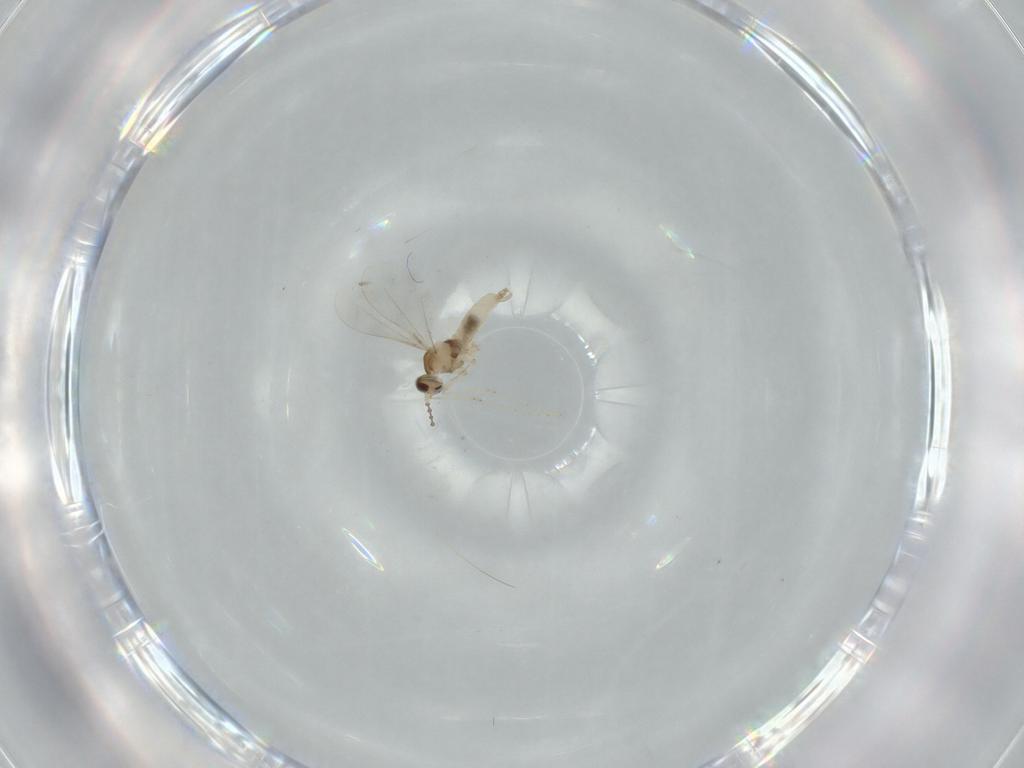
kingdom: Animalia
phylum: Arthropoda
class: Insecta
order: Diptera
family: Cecidomyiidae
